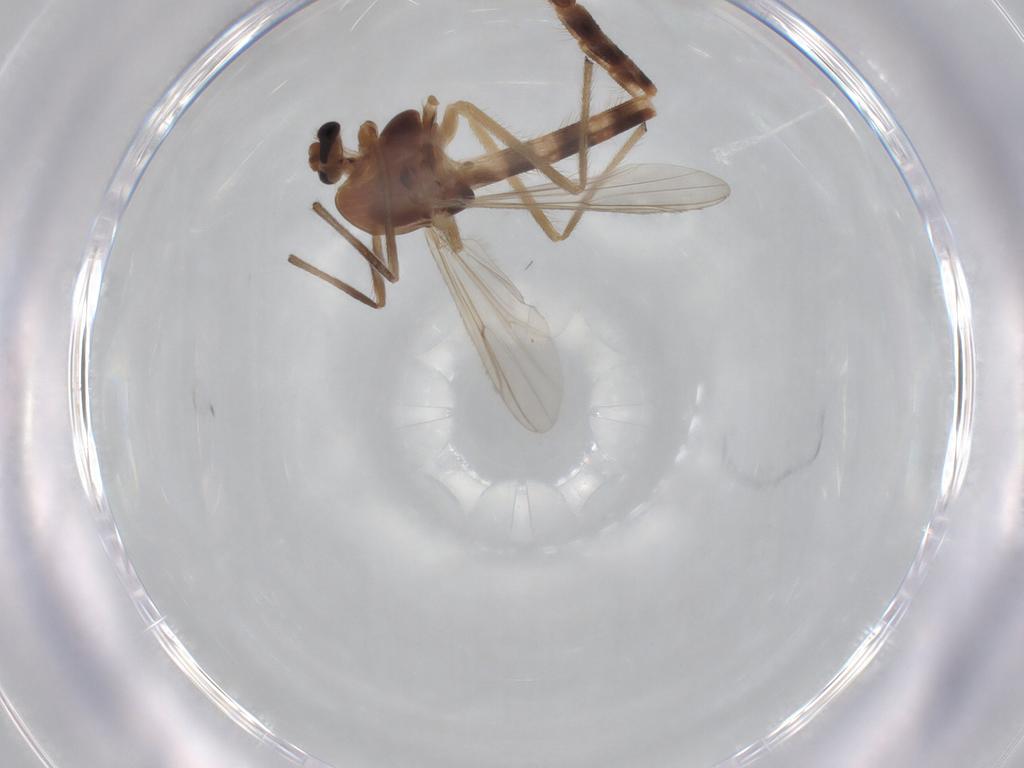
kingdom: Animalia
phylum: Arthropoda
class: Insecta
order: Diptera
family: Chironomidae
